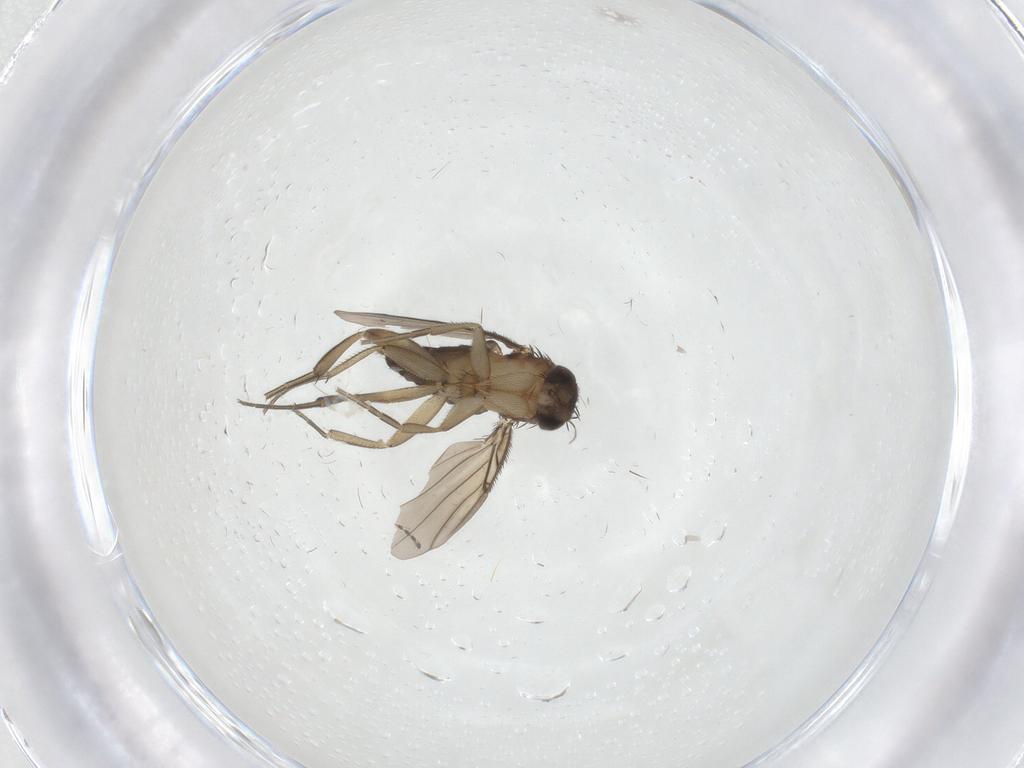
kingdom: Animalia
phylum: Arthropoda
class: Insecta
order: Diptera
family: Phoridae
